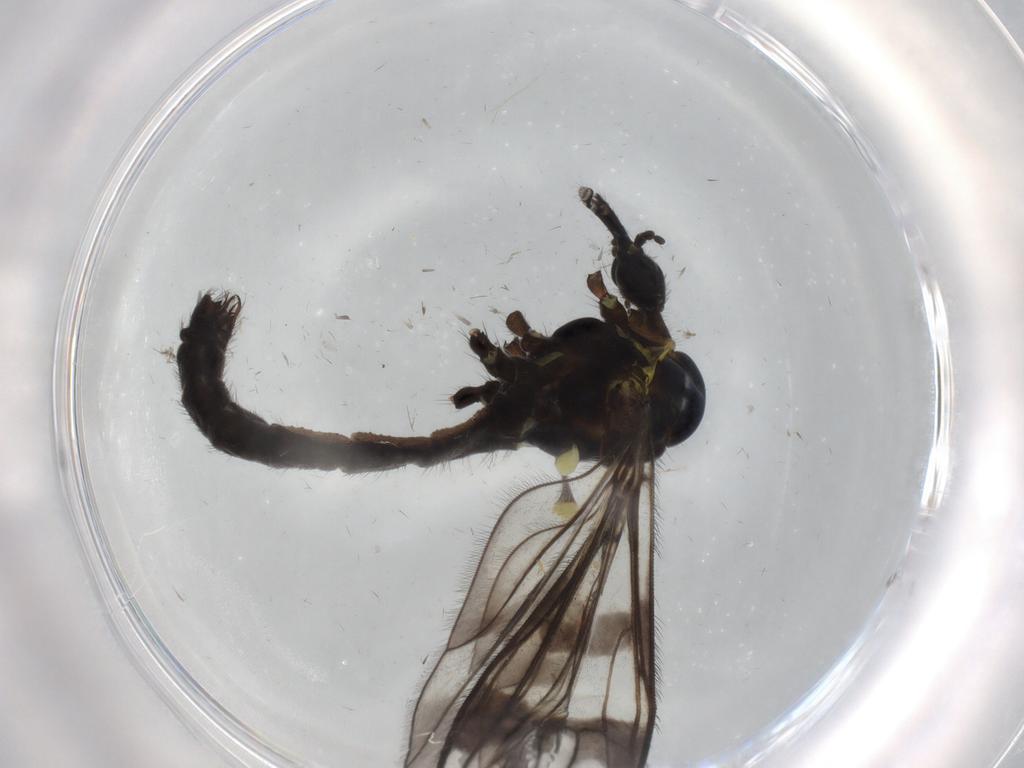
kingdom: Animalia
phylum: Arthropoda
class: Insecta
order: Diptera
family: Limoniidae
